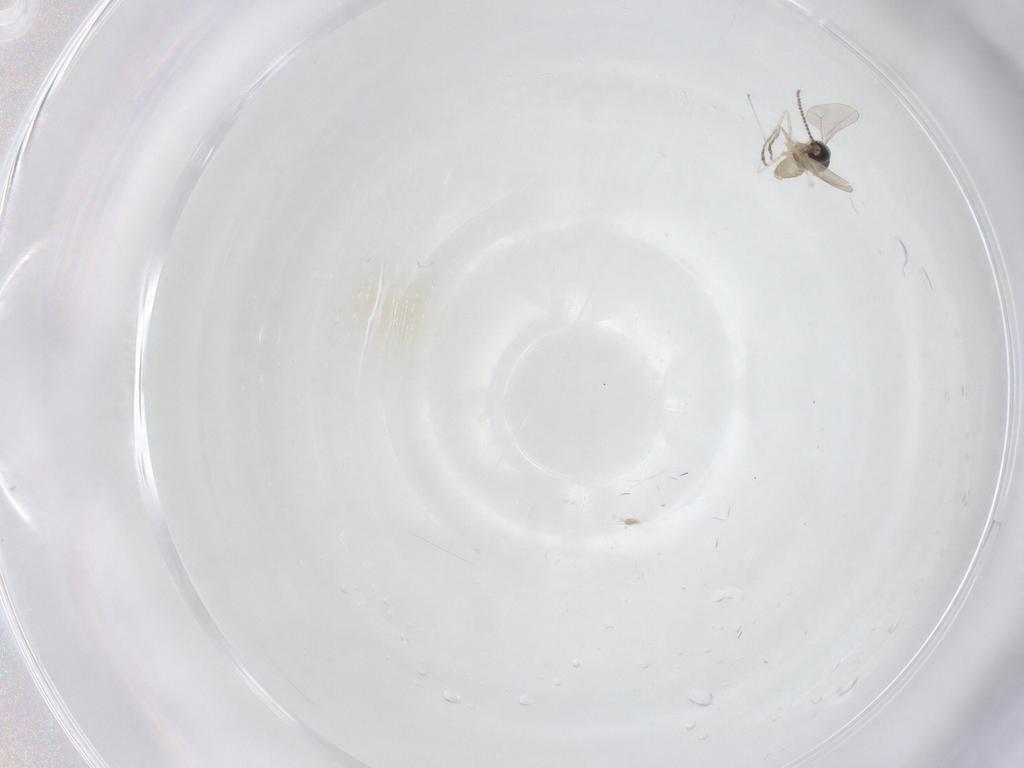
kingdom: Animalia
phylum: Arthropoda
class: Insecta
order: Diptera
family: Cecidomyiidae
